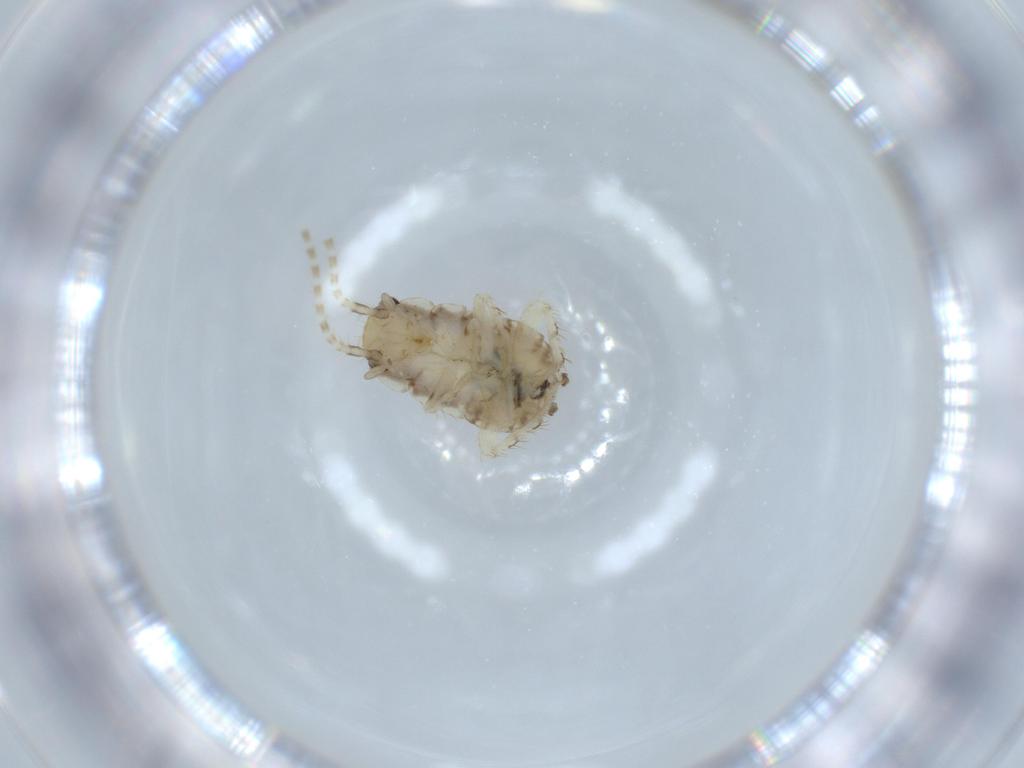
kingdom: Animalia
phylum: Arthropoda
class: Insecta
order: Blattodea
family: Ectobiidae
